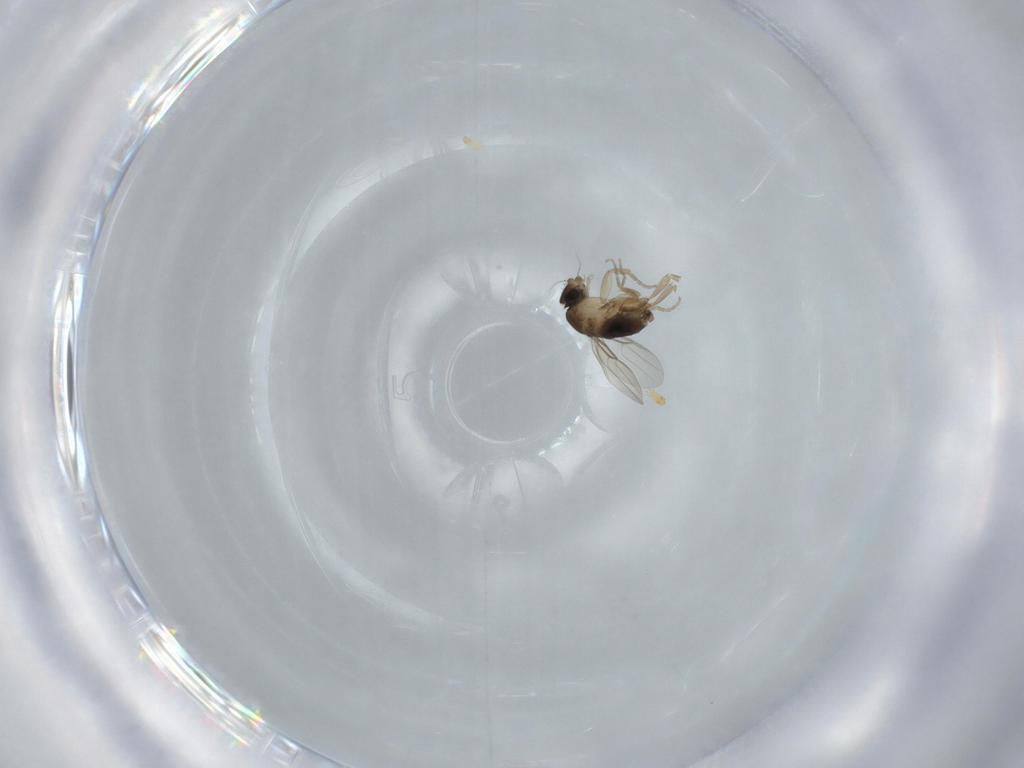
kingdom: Animalia
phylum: Arthropoda
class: Insecta
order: Diptera
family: Phoridae
